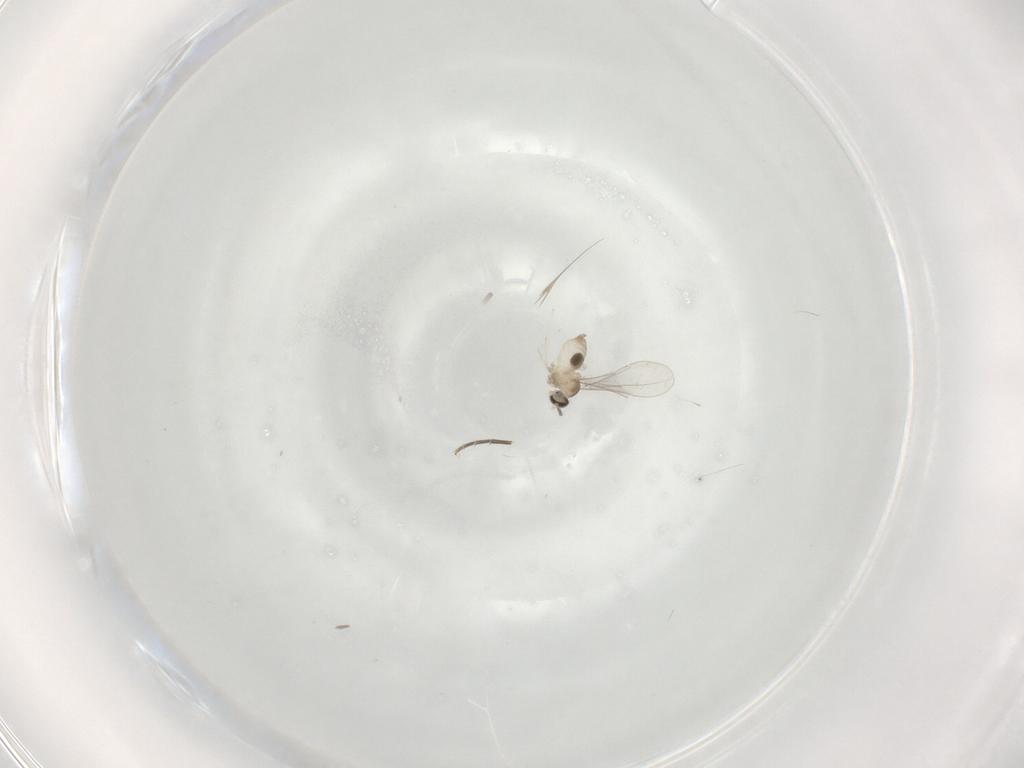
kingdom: Animalia
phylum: Arthropoda
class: Insecta
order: Diptera
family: Cecidomyiidae
